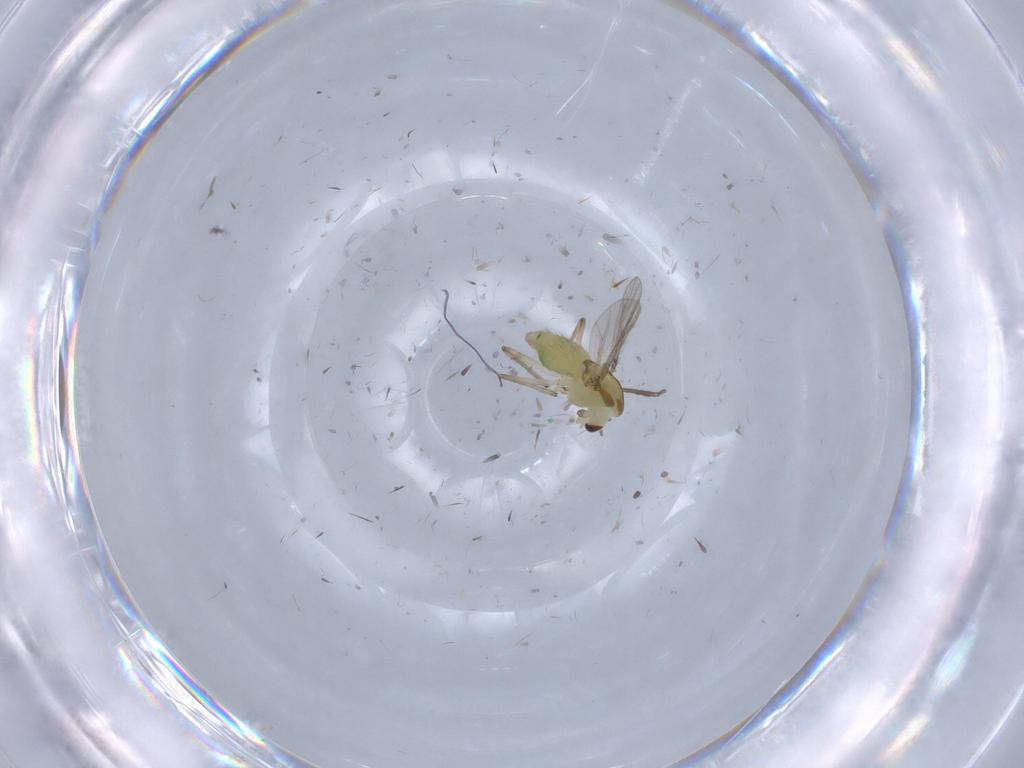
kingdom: Animalia
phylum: Arthropoda
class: Insecta
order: Diptera
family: Chironomidae
